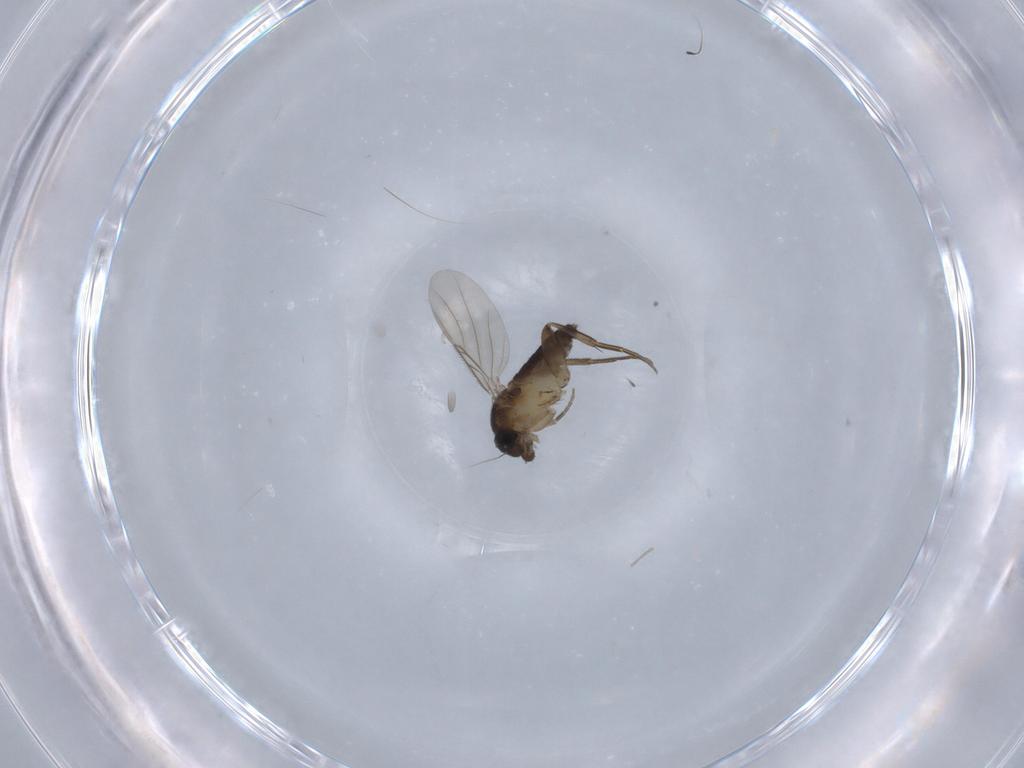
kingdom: Animalia
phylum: Arthropoda
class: Insecta
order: Diptera
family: Phoridae
